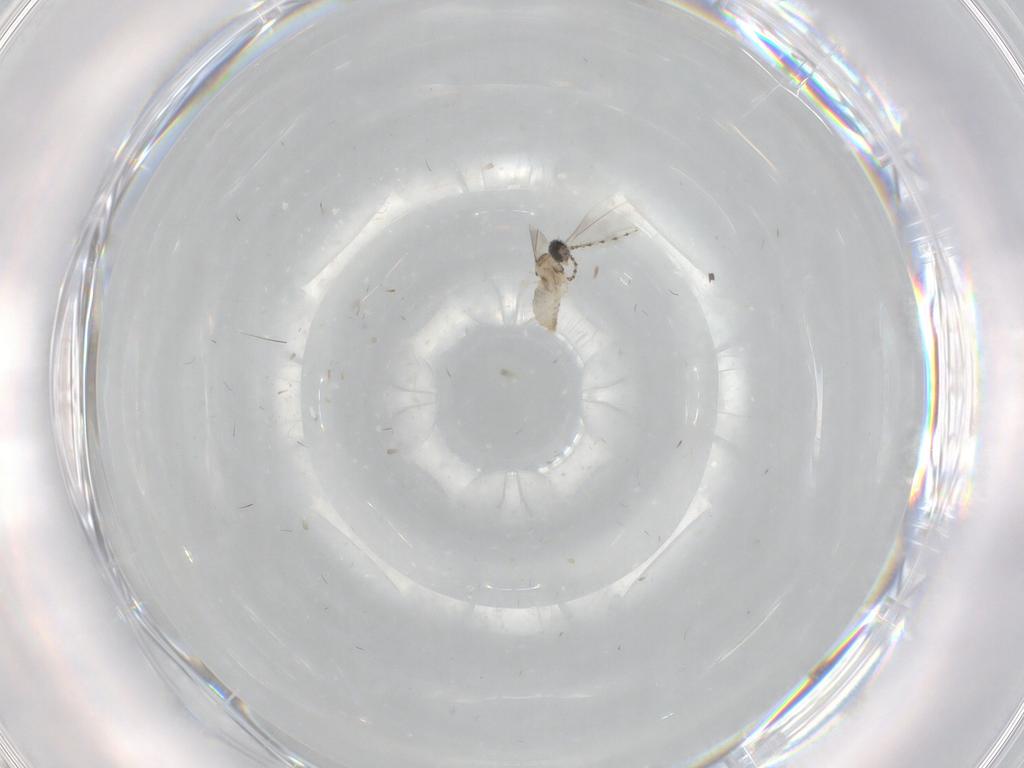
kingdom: Animalia
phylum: Arthropoda
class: Insecta
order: Diptera
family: Cecidomyiidae
